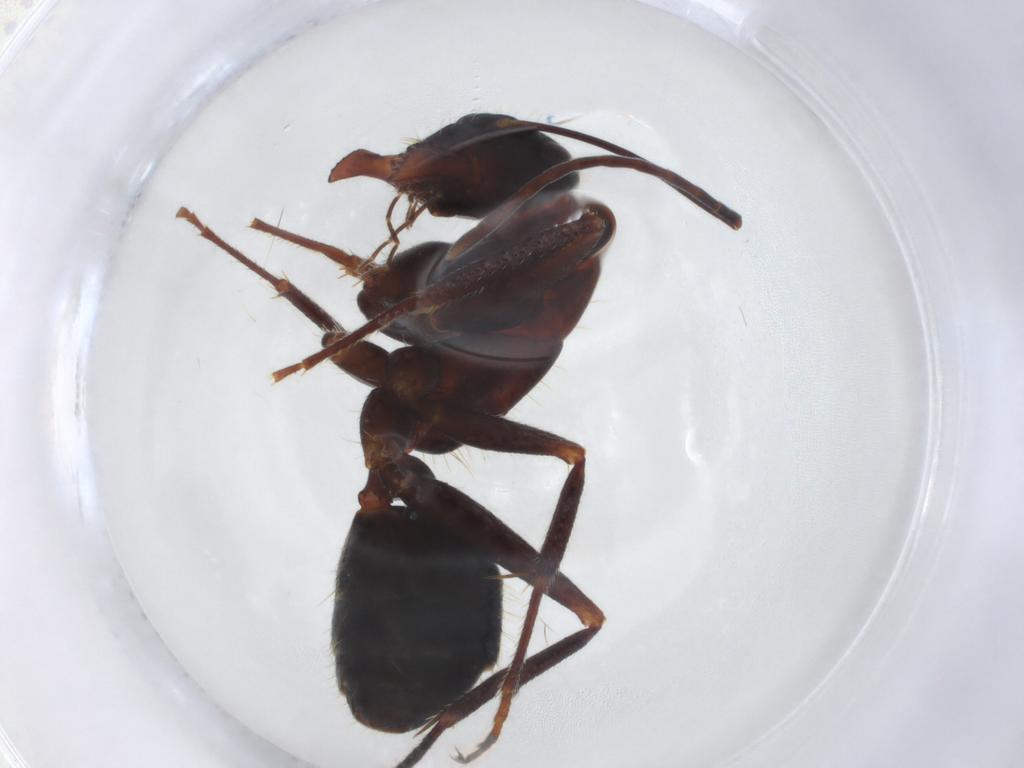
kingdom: Animalia
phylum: Arthropoda
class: Insecta
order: Hymenoptera
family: Formicidae
